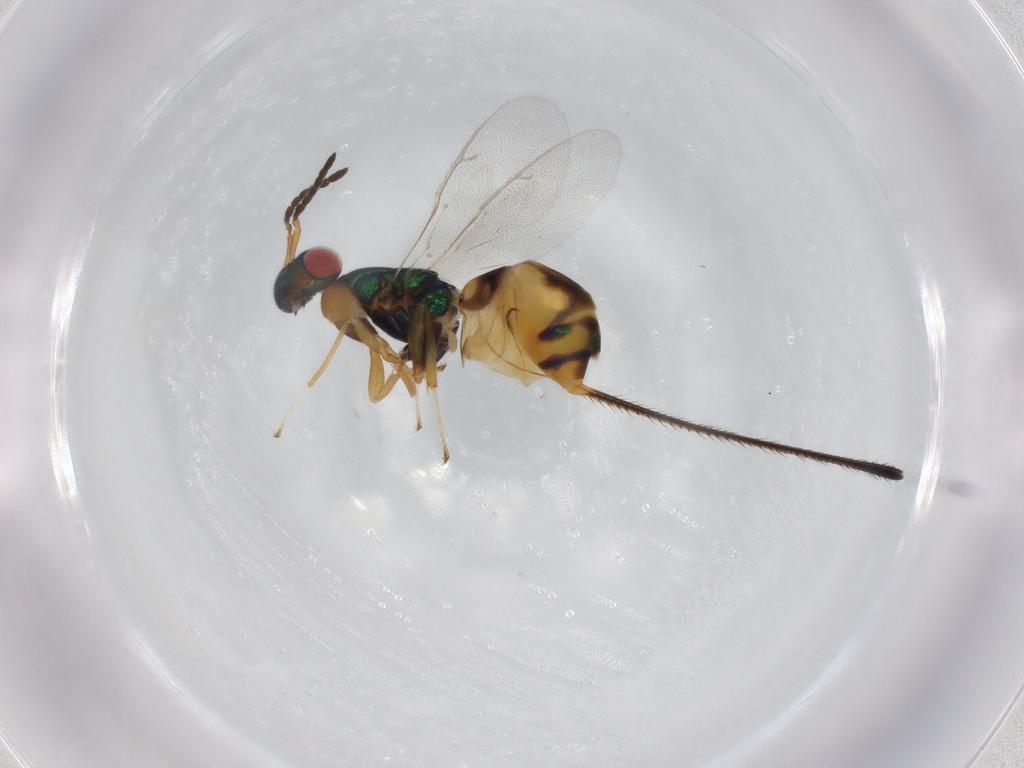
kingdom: Animalia
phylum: Arthropoda
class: Insecta
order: Hymenoptera
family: Pteromalidae
